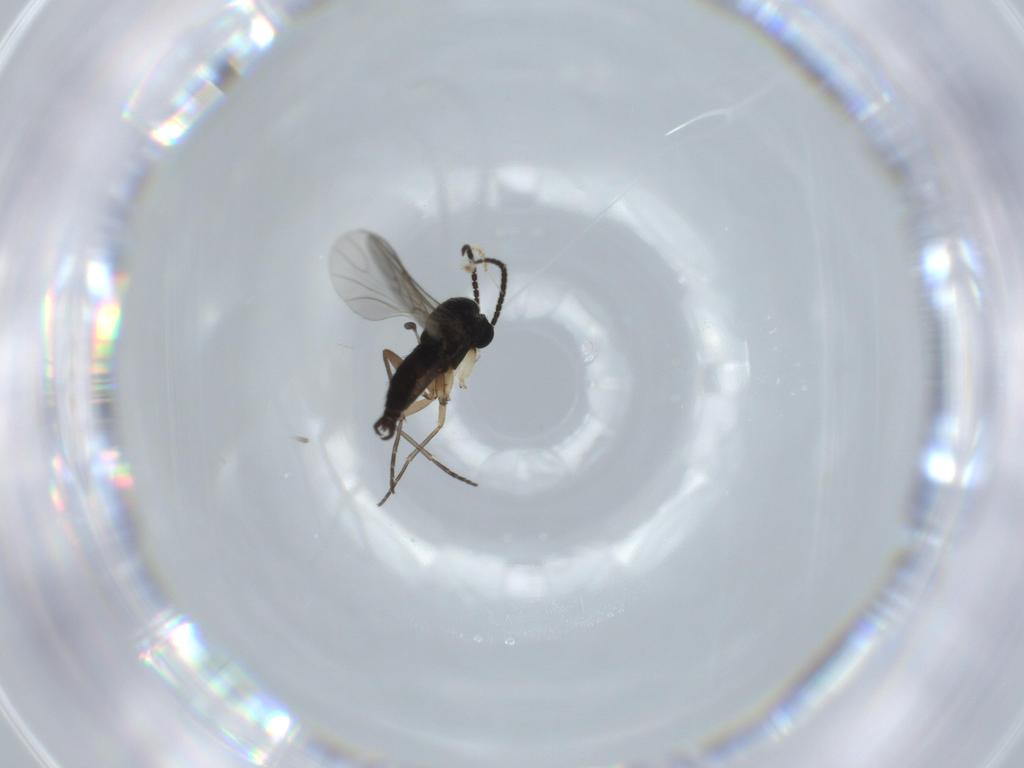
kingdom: Animalia
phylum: Arthropoda
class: Insecta
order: Diptera
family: Sciaridae
